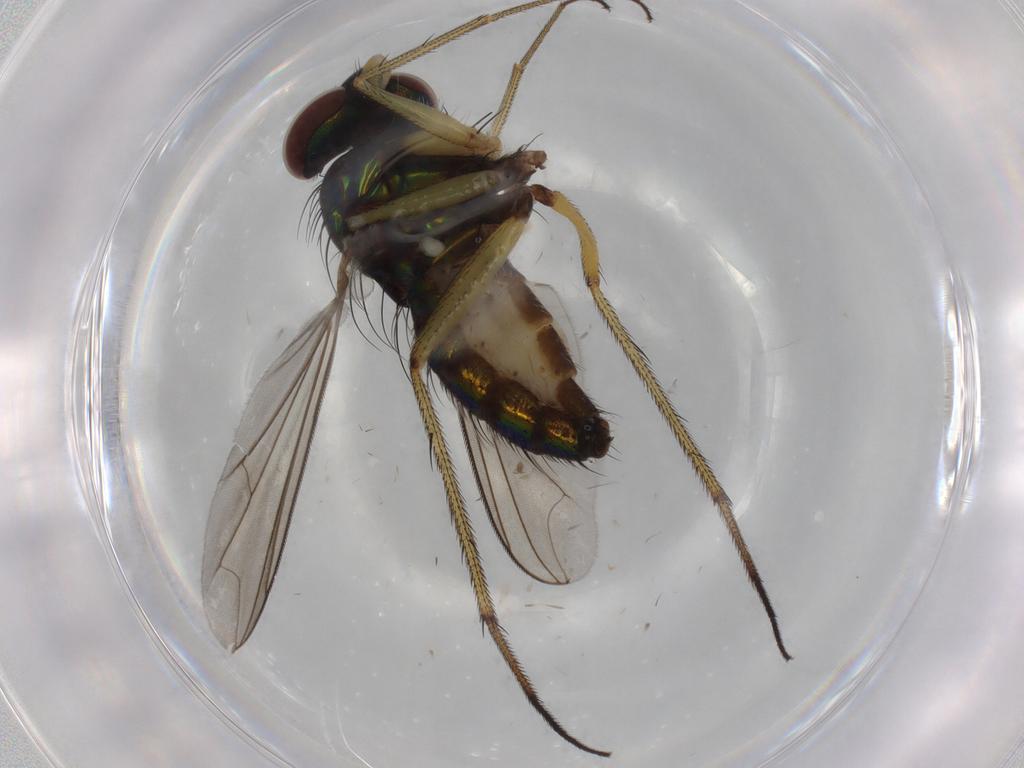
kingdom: Animalia
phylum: Arthropoda
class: Insecta
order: Diptera
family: Dolichopodidae
